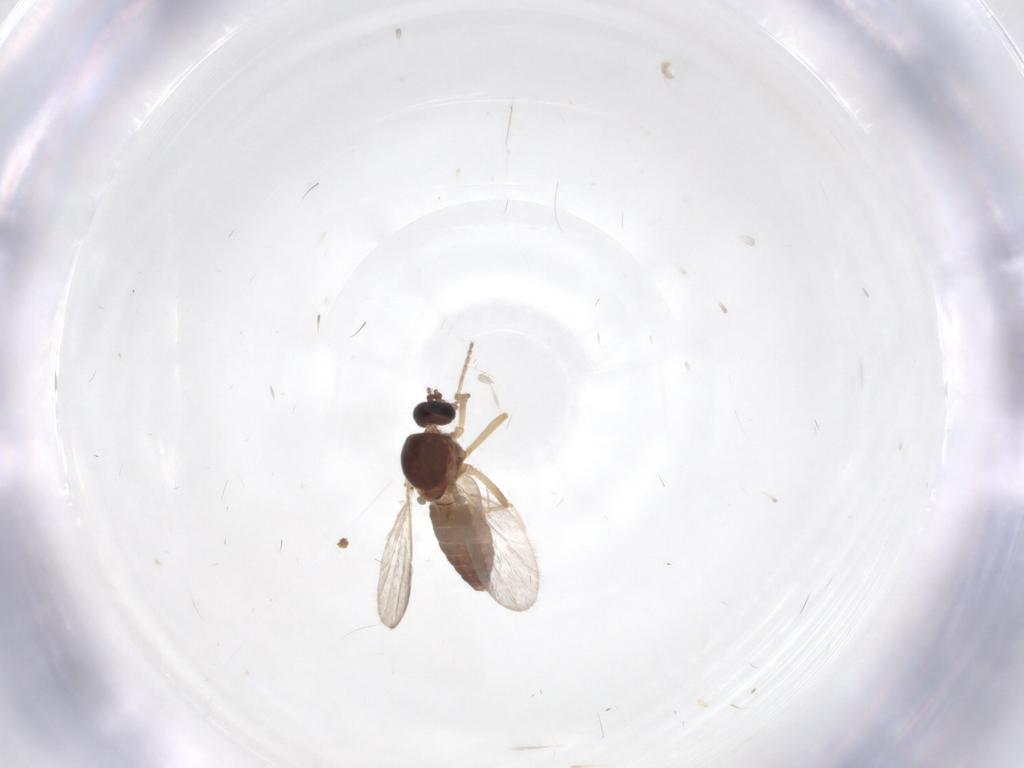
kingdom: Animalia
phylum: Arthropoda
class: Insecta
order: Diptera
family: Ceratopogonidae
